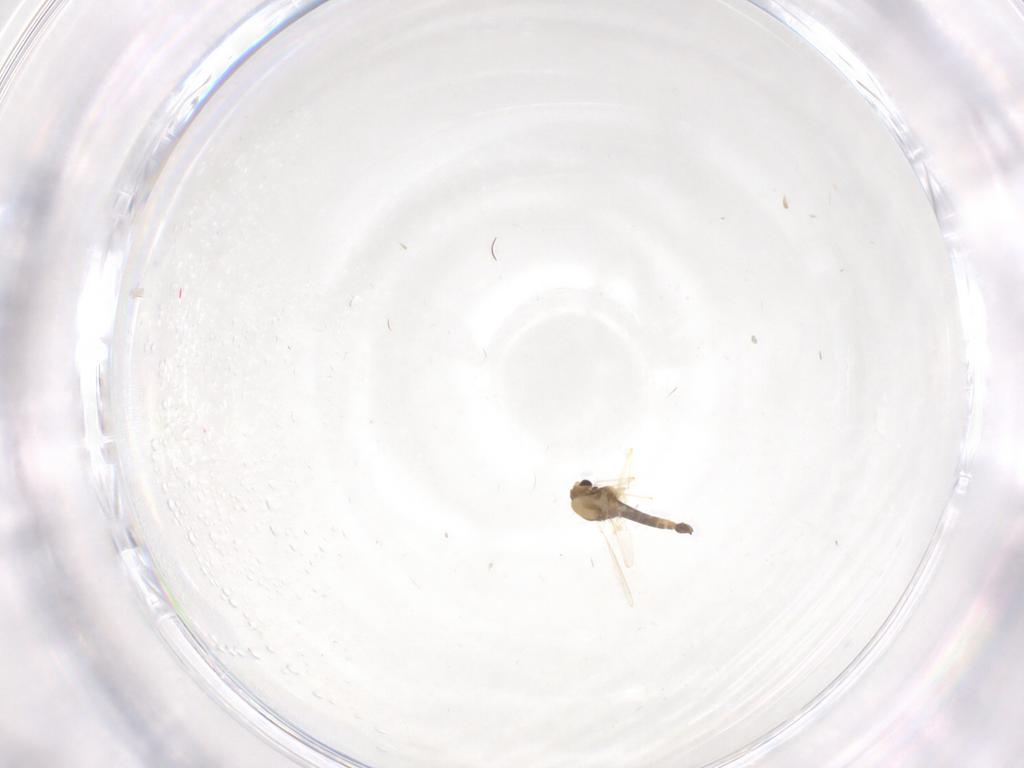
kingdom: Animalia
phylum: Arthropoda
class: Insecta
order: Diptera
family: Chironomidae
